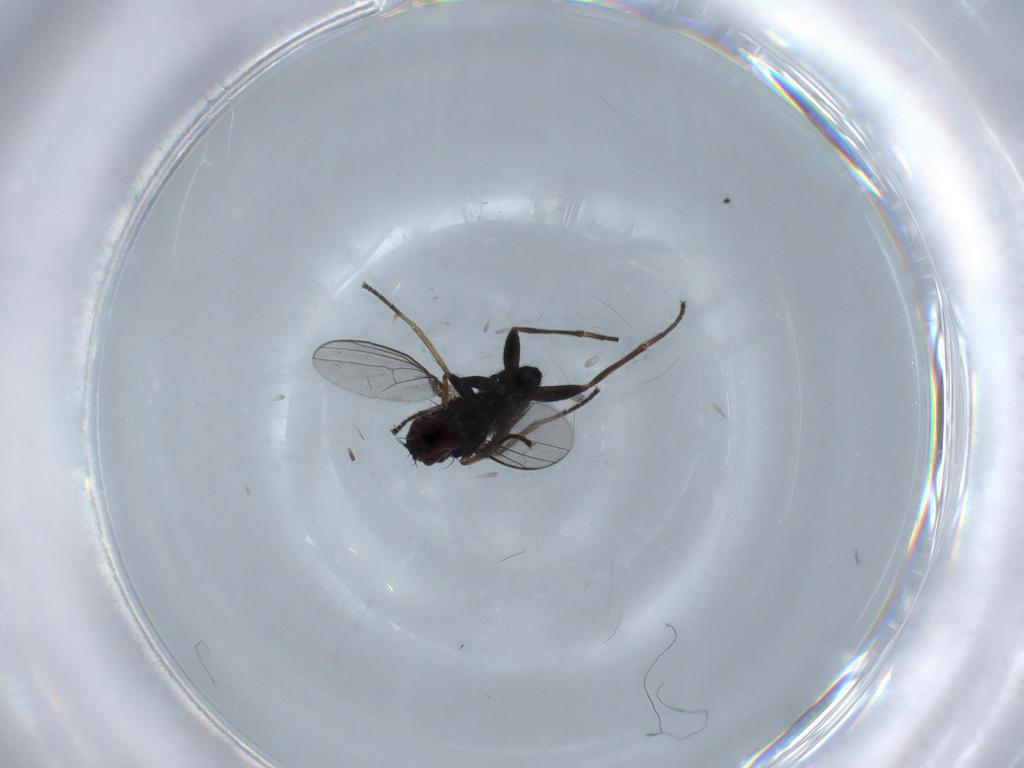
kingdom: Animalia
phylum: Arthropoda
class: Insecta
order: Diptera
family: Dolichopodidae
